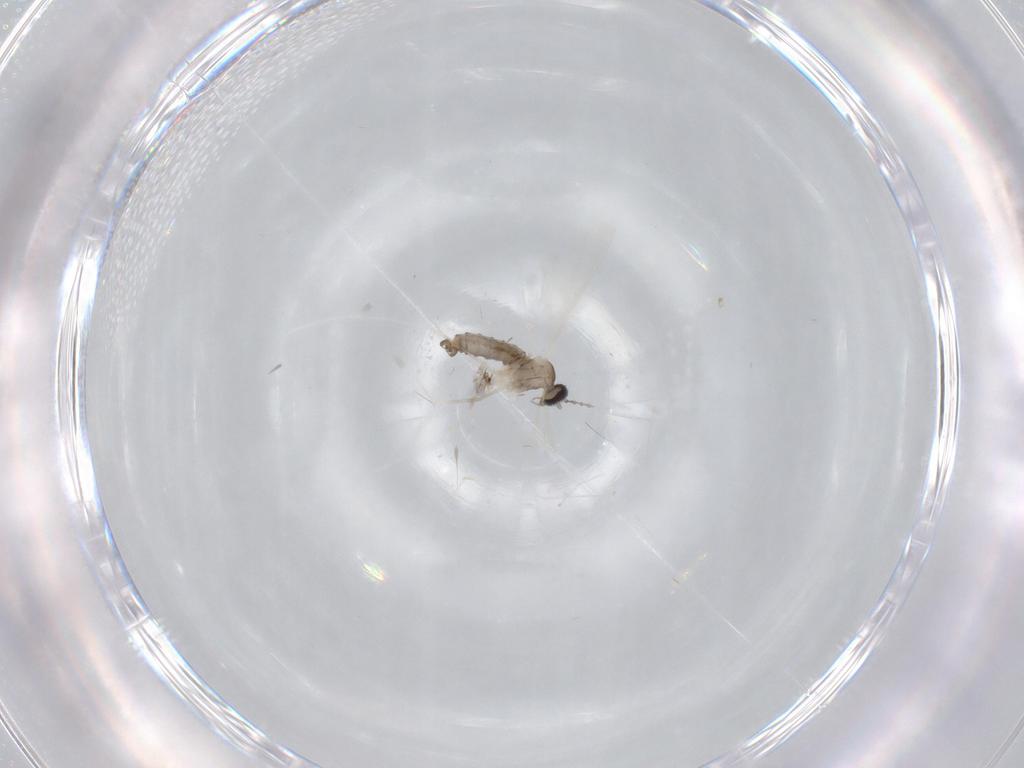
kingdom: Animalia
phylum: Arthropoda
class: Insecta
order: Diptera
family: Cecidomyiidae
